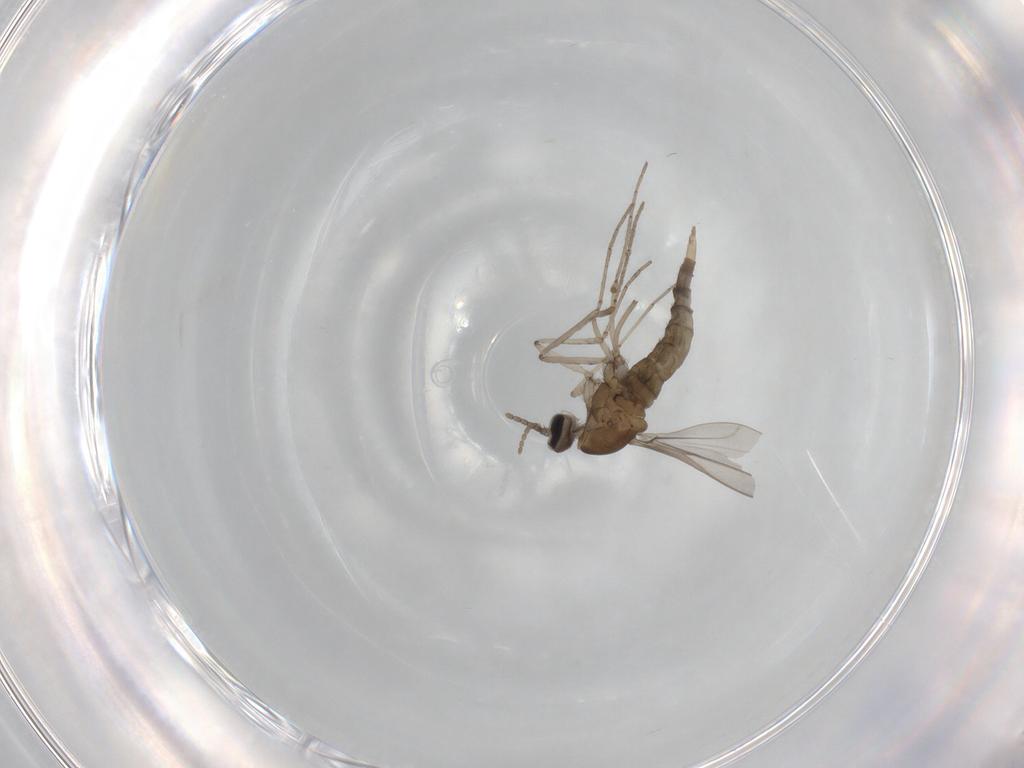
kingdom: Animalia
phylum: Arthropoda
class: Insecta
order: Diptera
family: Cecidomyiidae
